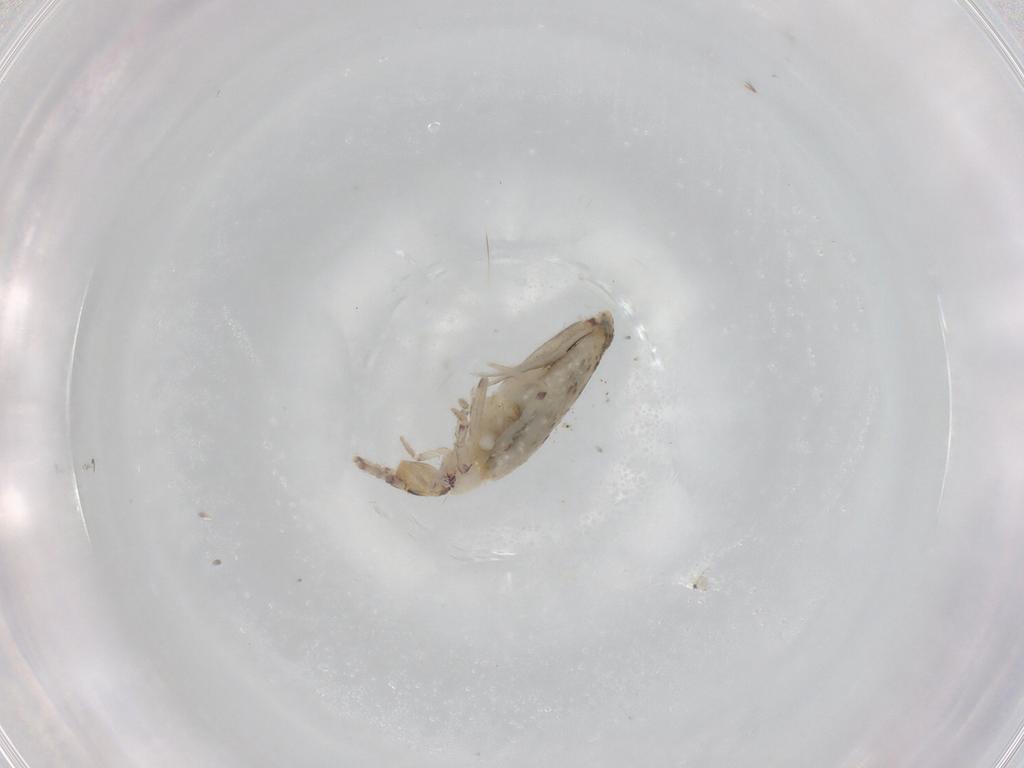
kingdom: Animalia
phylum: Arthropoda
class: Collembola
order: Entomobryomorpha
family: Entomobryidae
